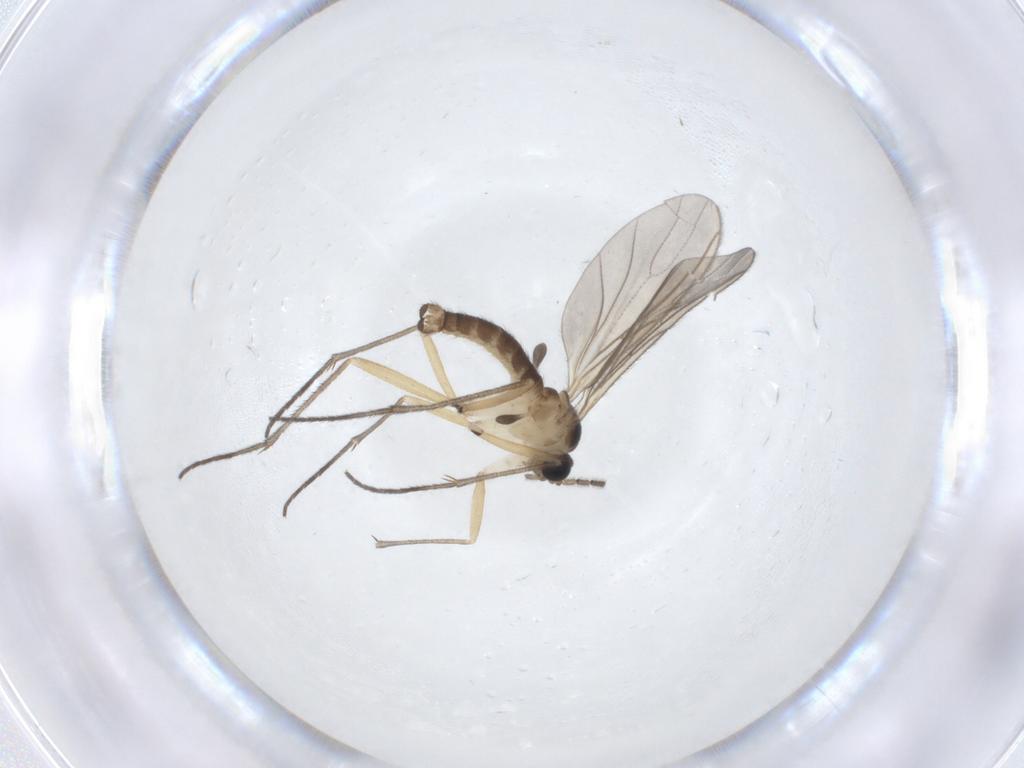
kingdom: Animalia
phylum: Arthropoda
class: Insecta
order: Diptera
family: Sciaridae
